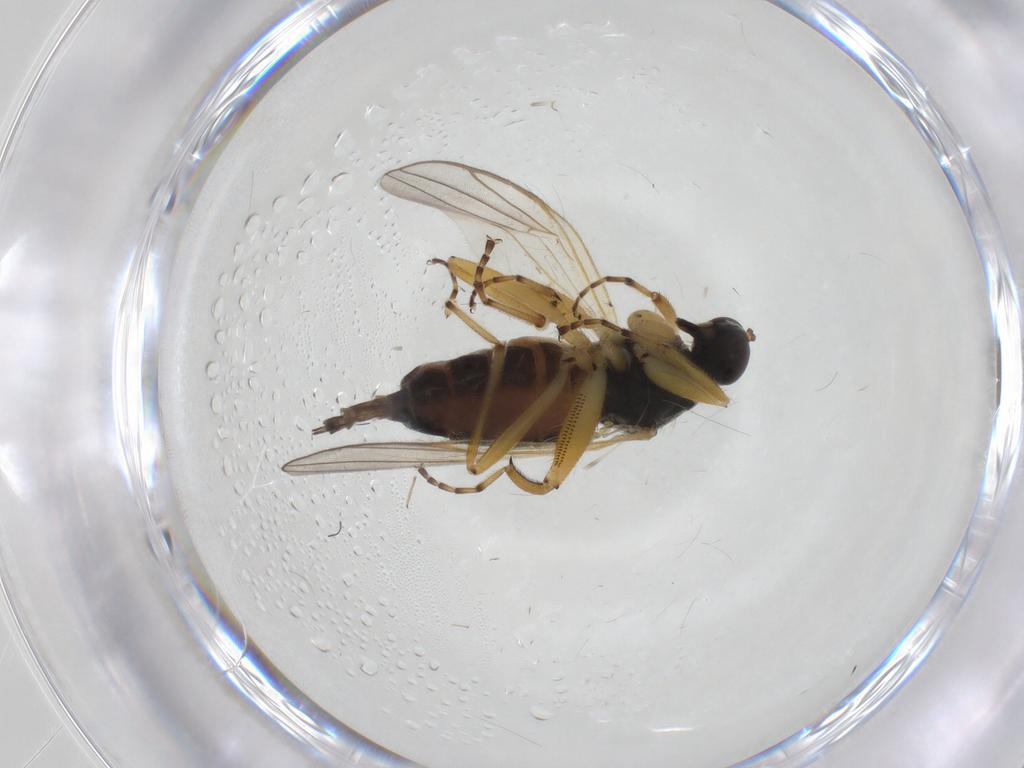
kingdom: Animalia
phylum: Arthropoda
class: Insecta
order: Diptera
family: Hybotidae
